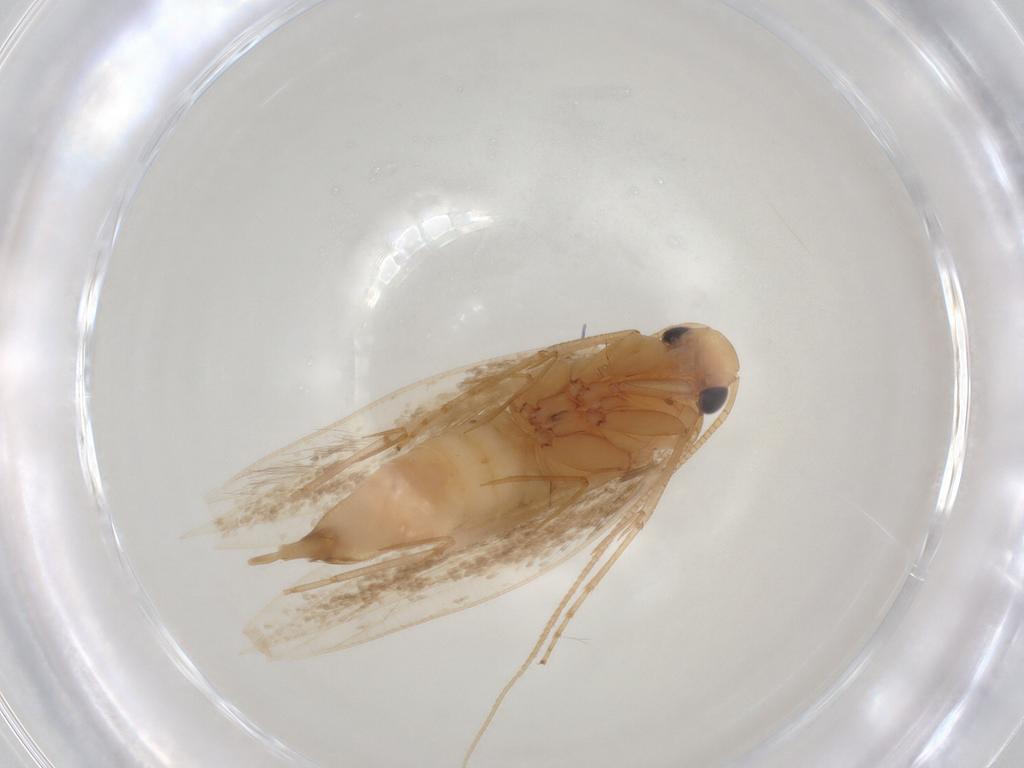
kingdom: Animalia
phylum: Arthropoda
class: Insecta
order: Lepidoptera
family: Tineidae
